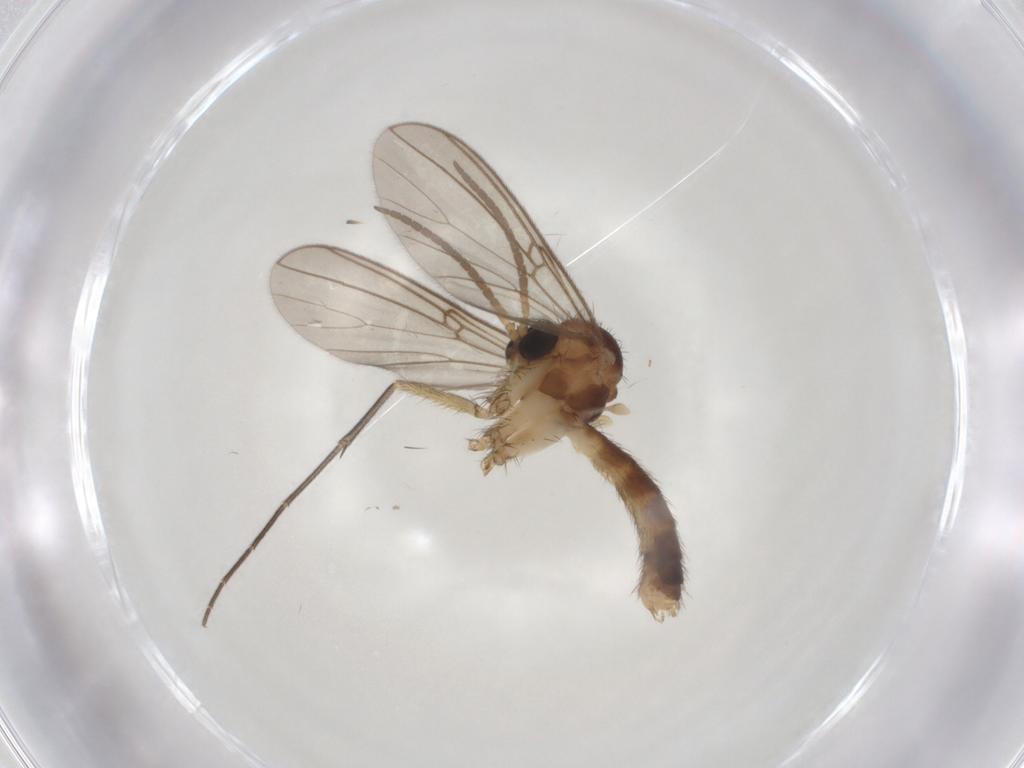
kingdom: Animalia
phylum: Arthropoda
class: Insecta
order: Diptera
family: Mycetophilidae
